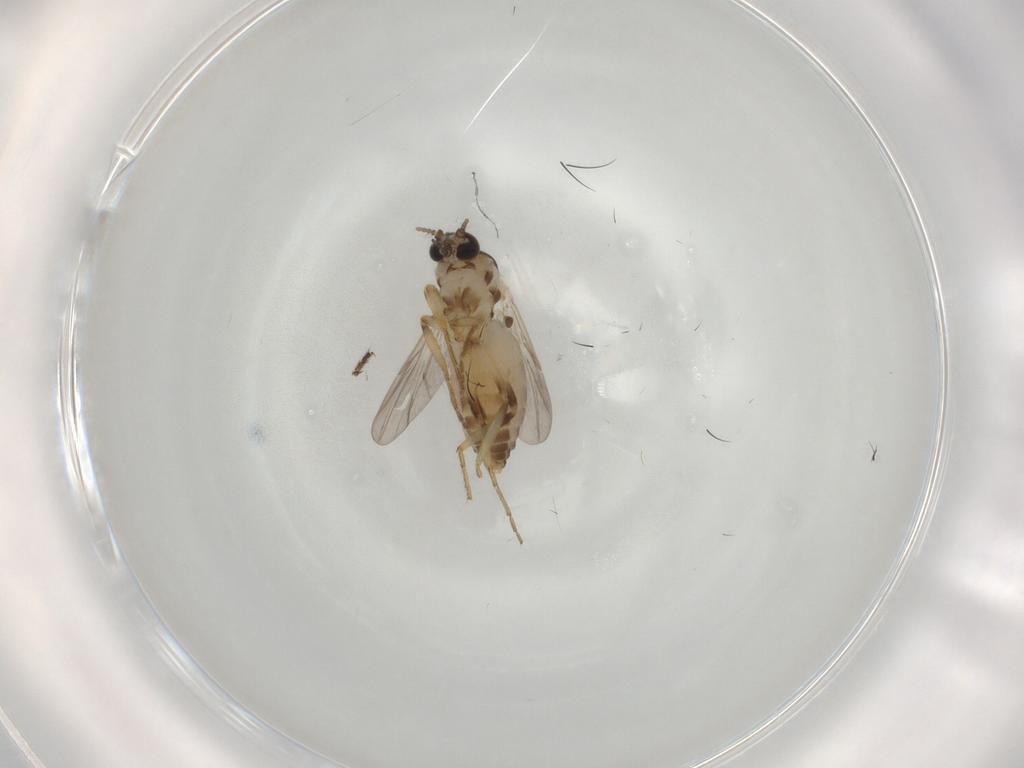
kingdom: Animalia
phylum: Arthropoda
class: Insecta
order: Diptera
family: Ceratopogonidae
